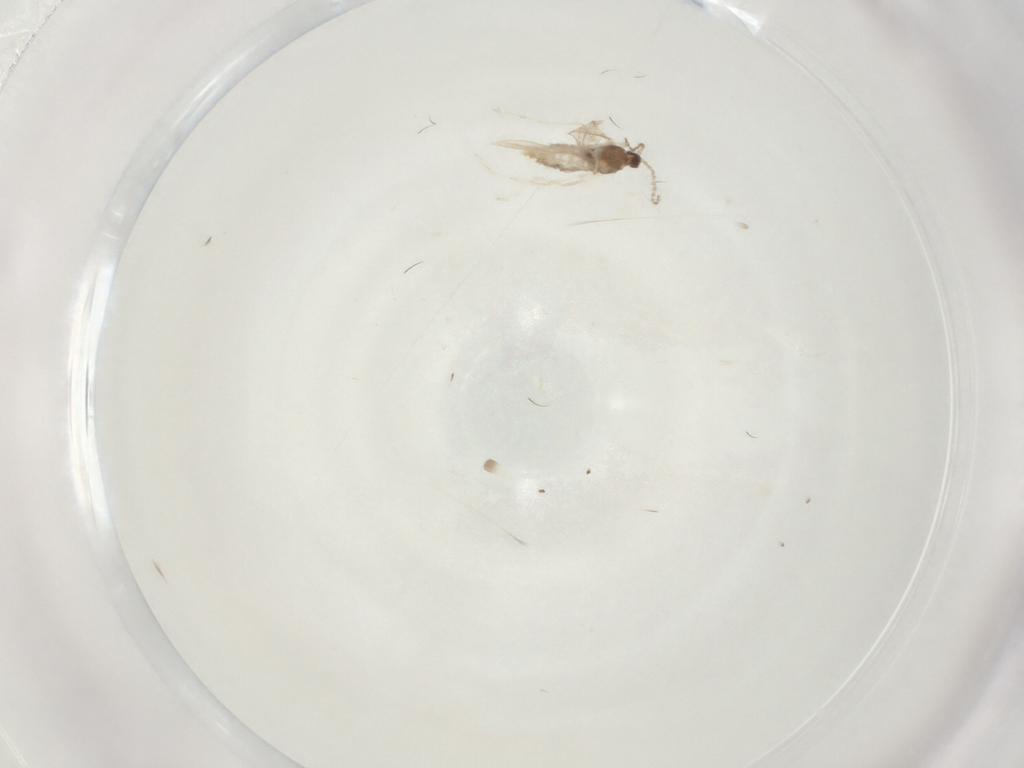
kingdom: Animalia
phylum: Arthropoda
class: Insecta
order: Diptera
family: Cecidomyiidae
